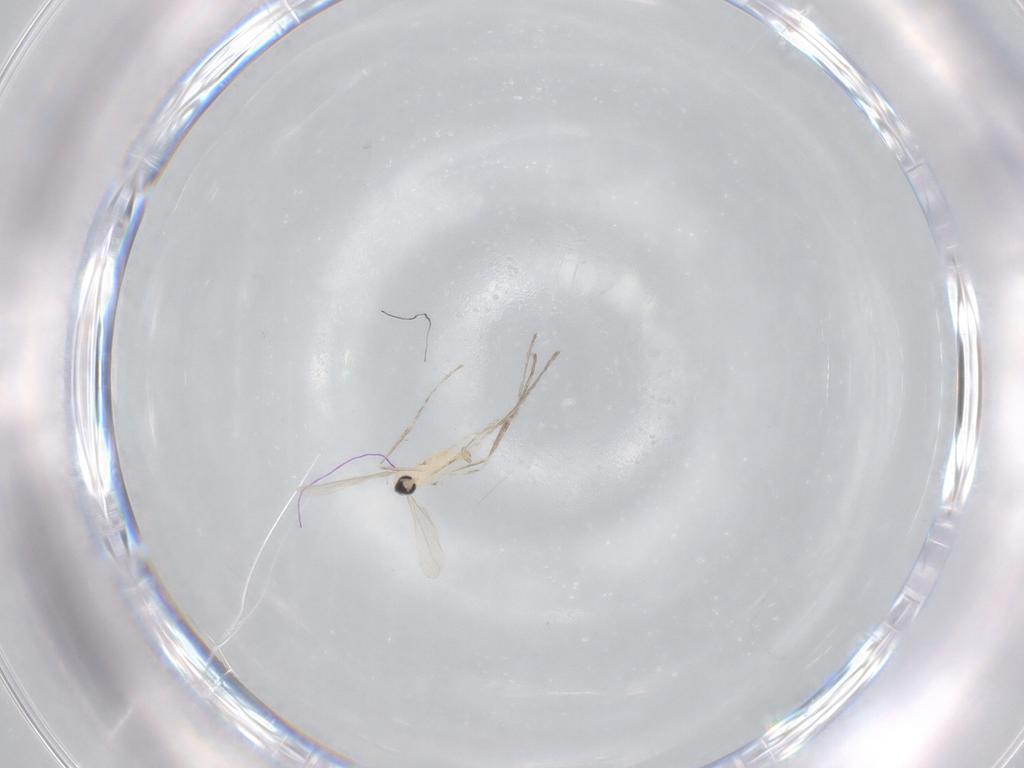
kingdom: Animalia
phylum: Arthropoda
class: Insecta
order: Diptera
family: Cecidomyiidae
